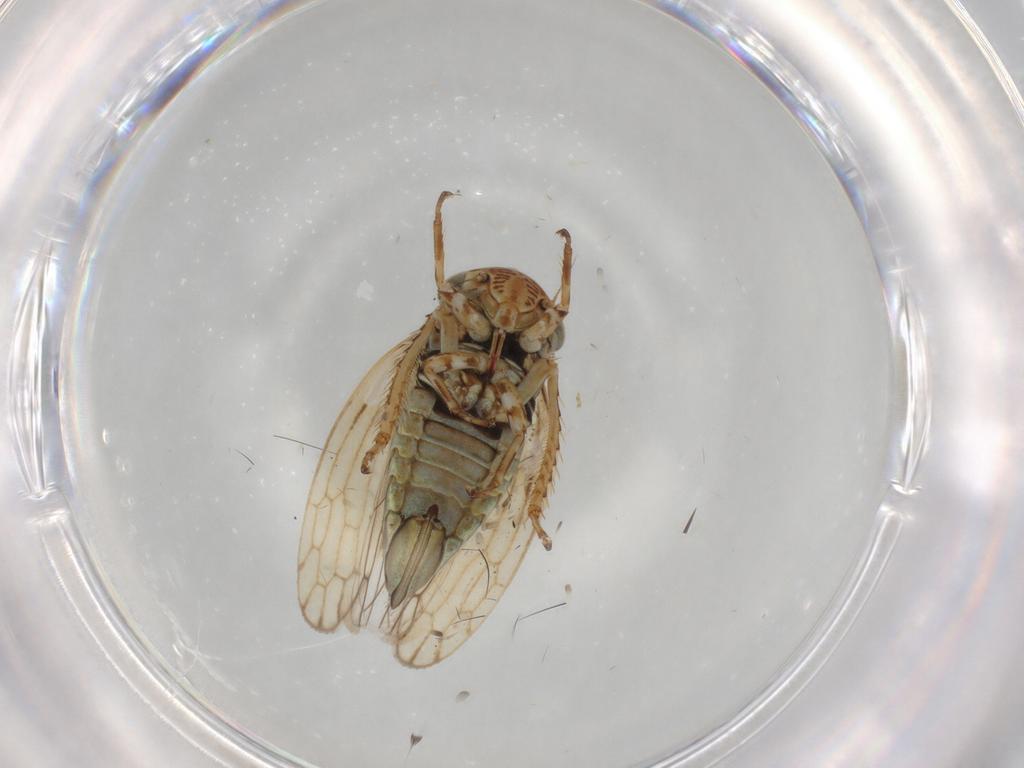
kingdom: Animalia
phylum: Arthropoda
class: Insecta
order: Hemiptera
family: Cicadellidae
